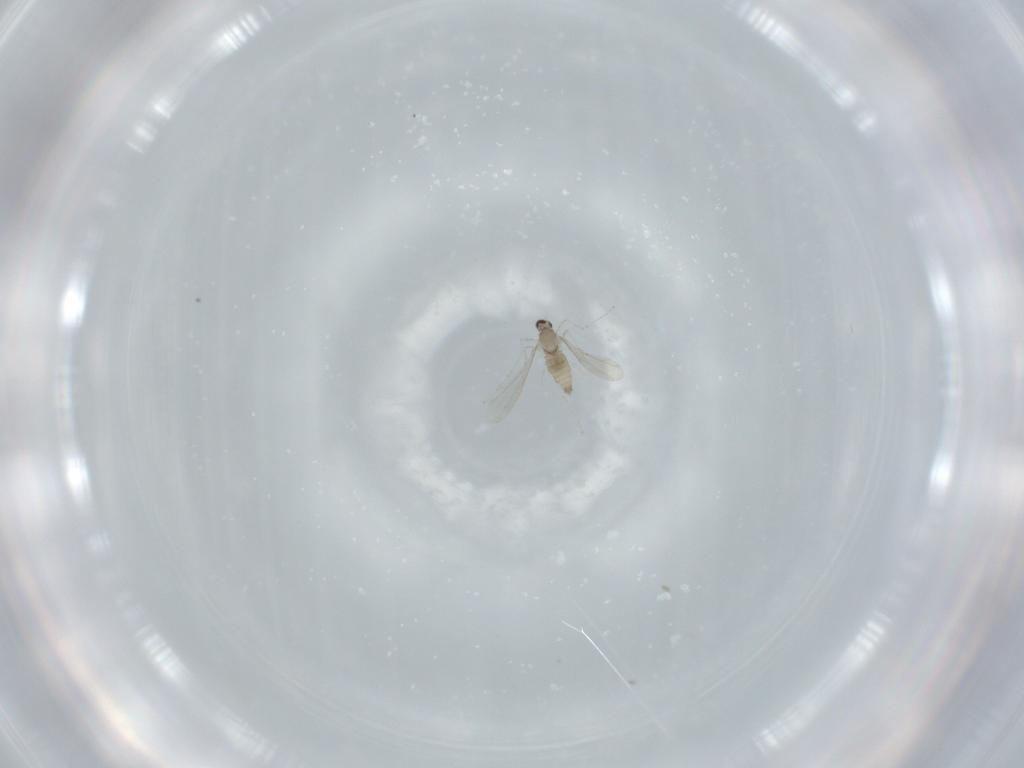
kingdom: Animalia
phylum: Arthropoda
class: Insecta
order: Diptera
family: Cecidomyiidae
